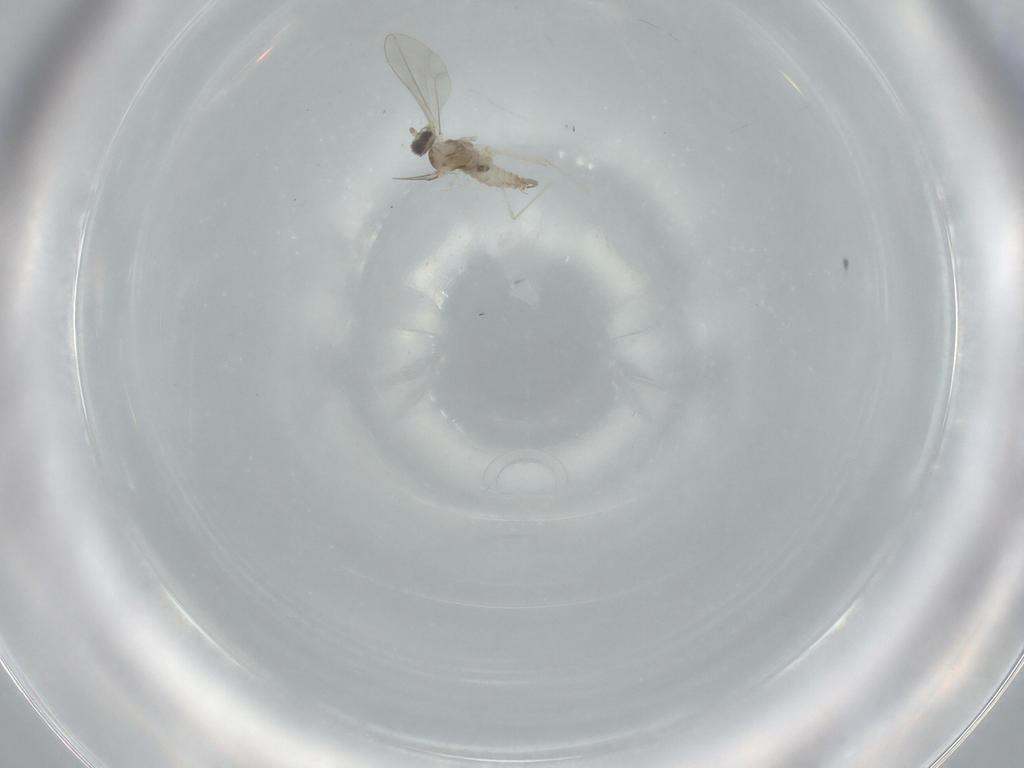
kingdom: Animalia
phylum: Arthropoda
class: Insecta
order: Diptera
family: Cecidomyiidae
